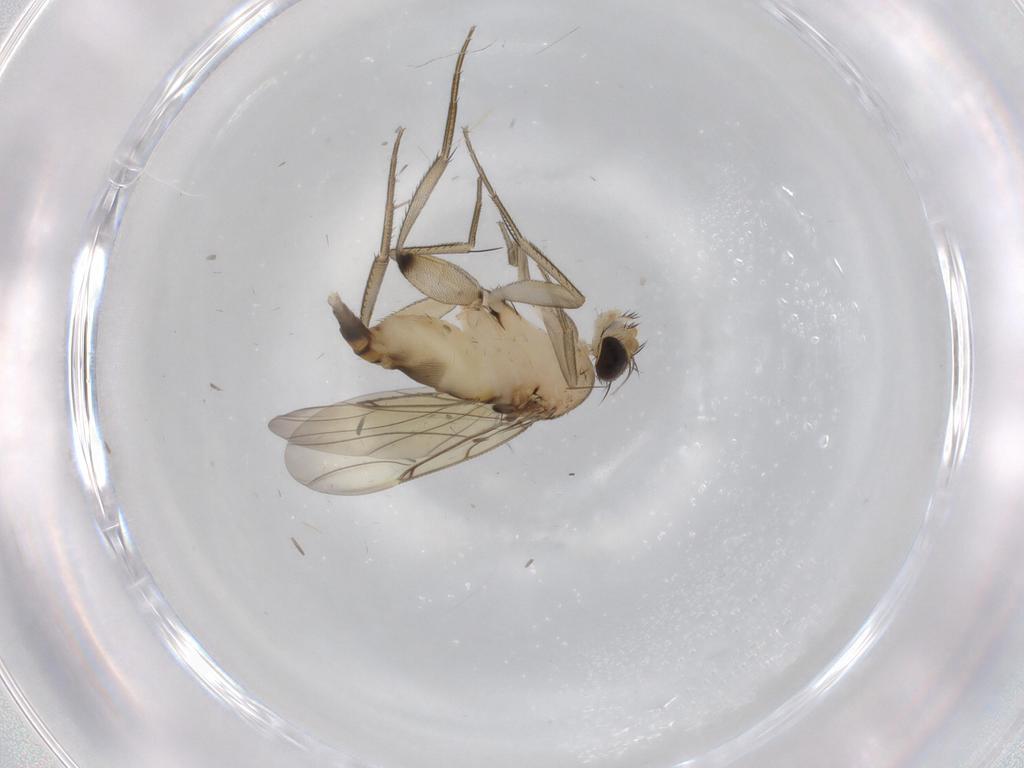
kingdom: Animalia
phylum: Arthropoda
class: Insecta
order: Diptera
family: Phoridae
